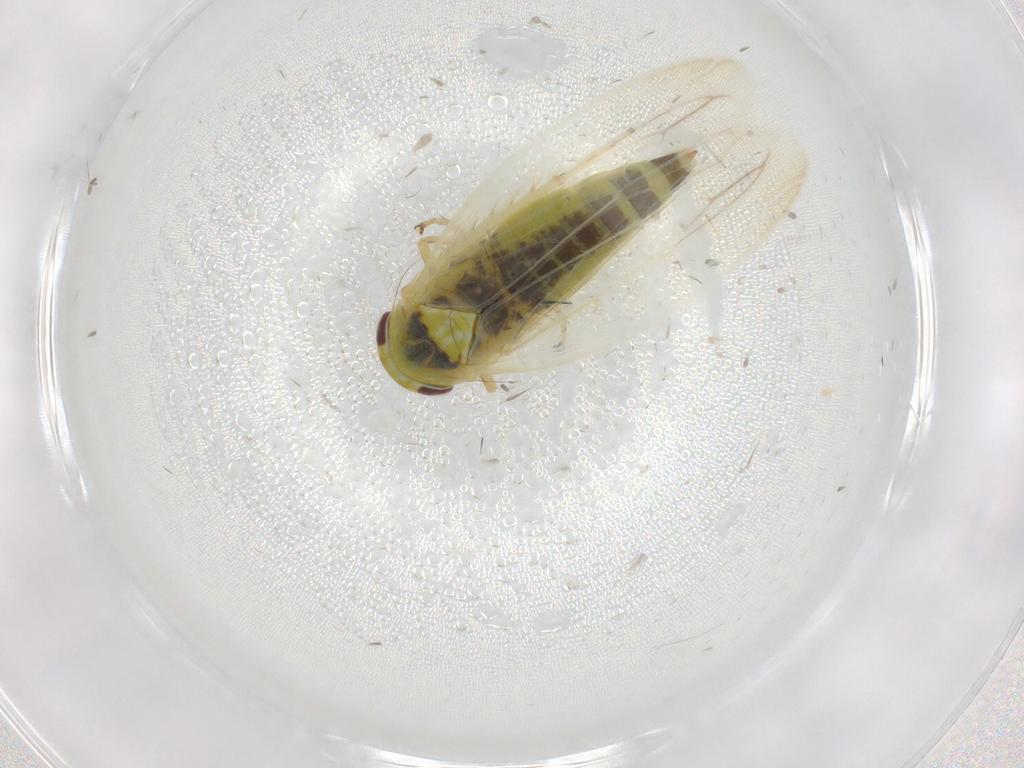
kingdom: Animalia
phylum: Arthropoda
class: Insecta
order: Hemiptera
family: Cicadellidae
